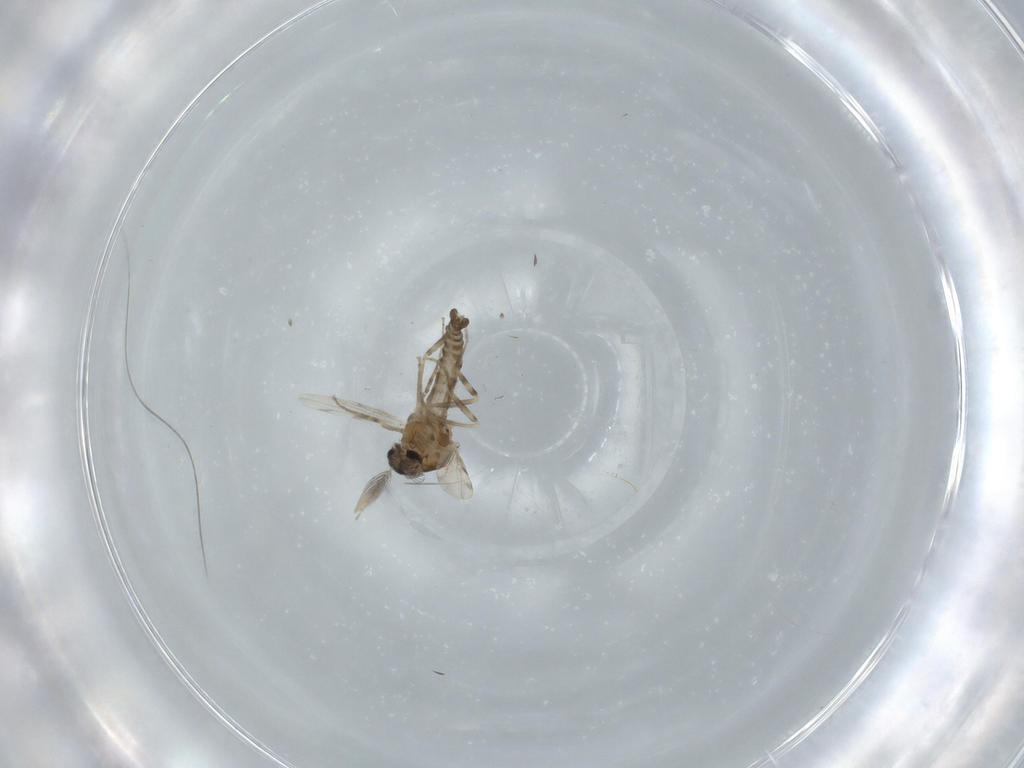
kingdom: Animalia
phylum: Arthropoda
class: Insecta
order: Diptera
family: Ceratopogonidae
